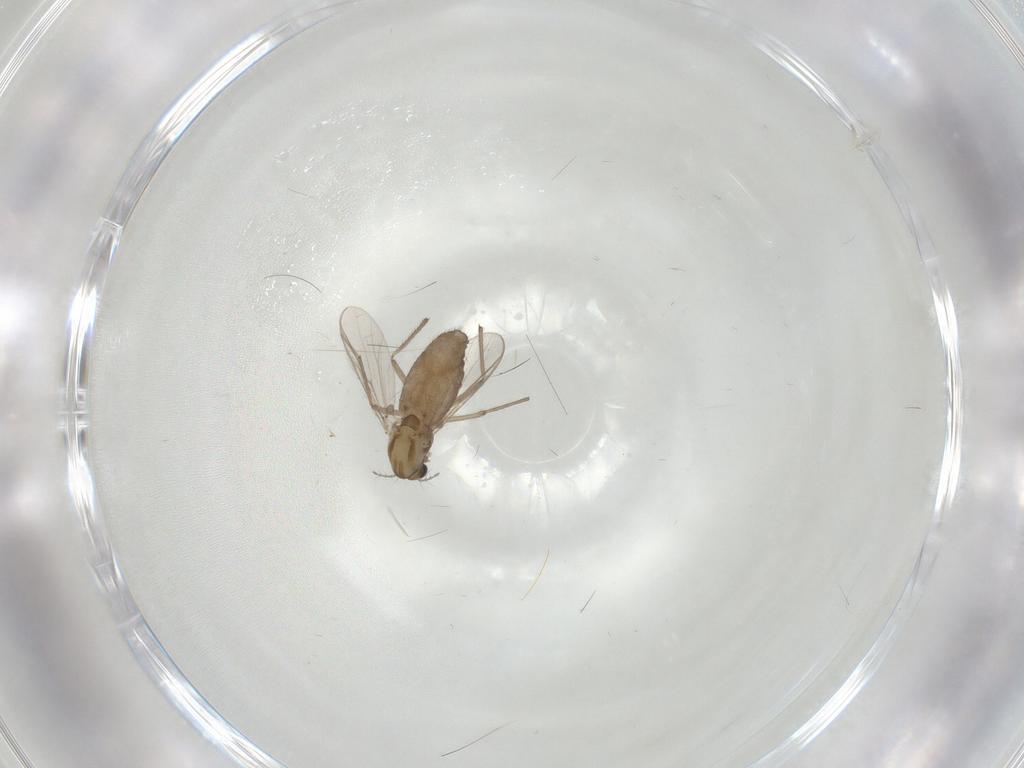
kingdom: Animalia
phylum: Arthropoda
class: Insecta
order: Diptera
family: Chironomidae
